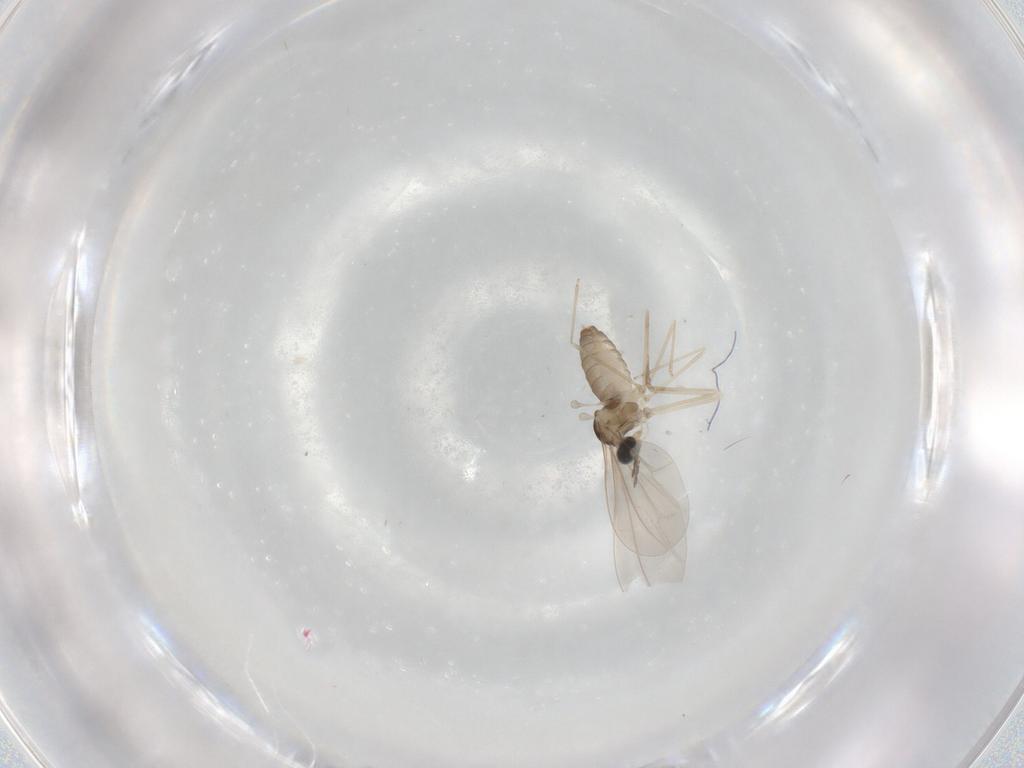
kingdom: Animalia
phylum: Arthropoda
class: Insecta
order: Diptera
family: Cecidomyiidae
